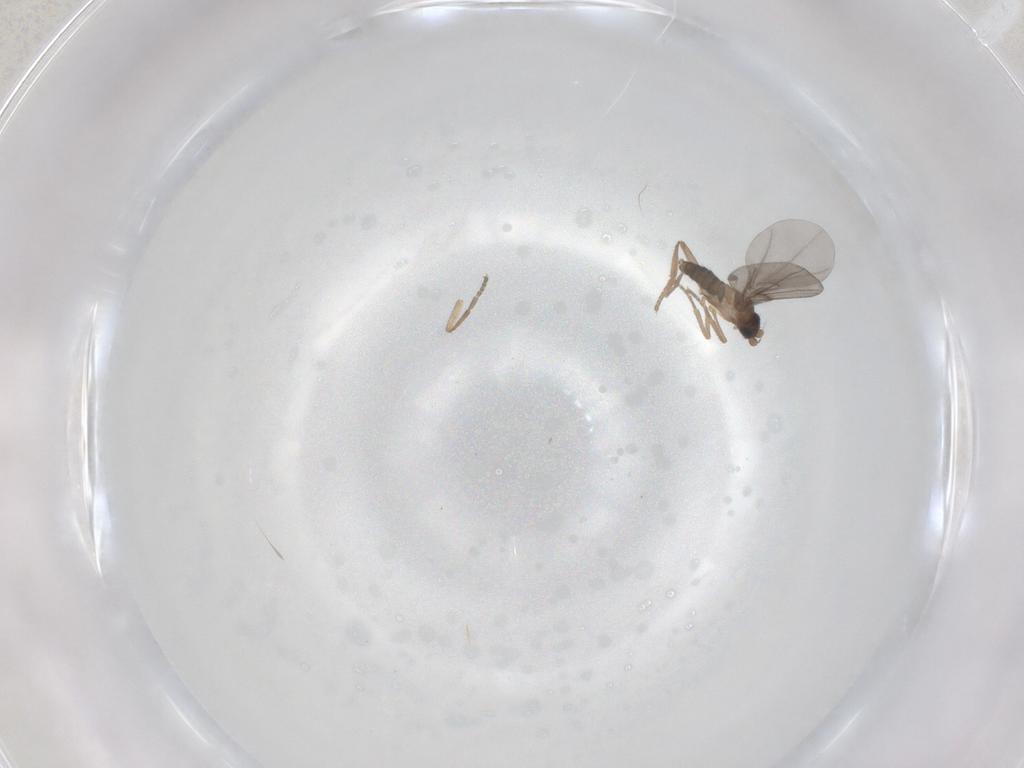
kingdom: Animalia
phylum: Arthropoda
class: Insecta
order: Diptera
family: Phoridae
